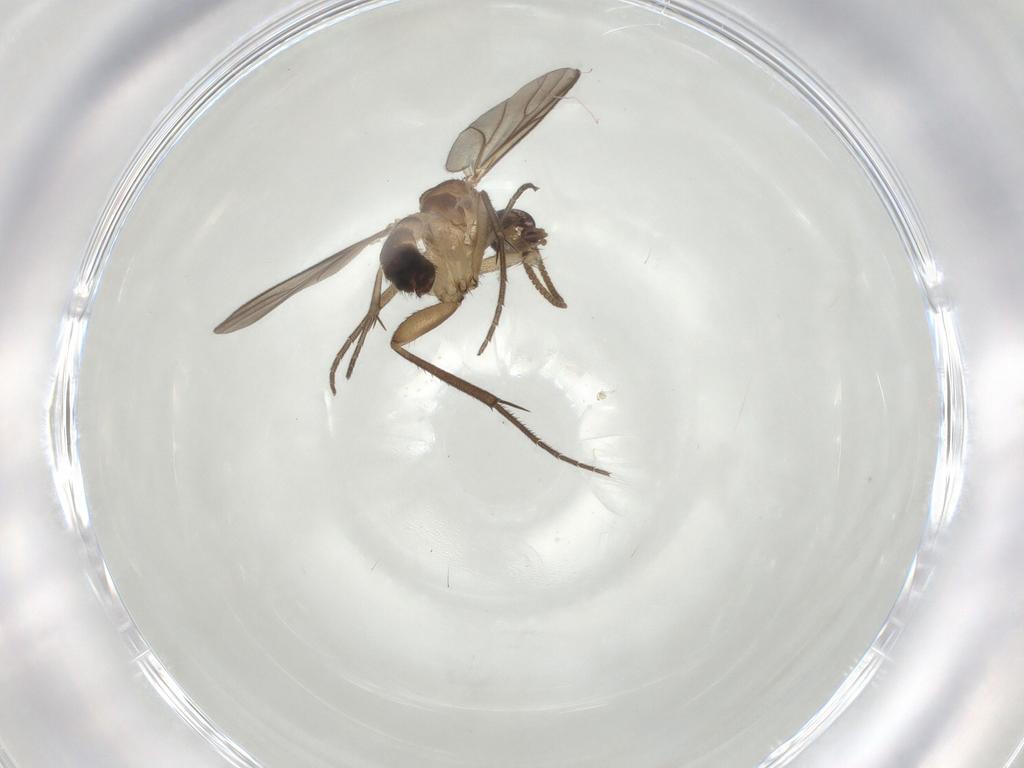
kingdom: Animalia
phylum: Arthropoda
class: Insecta
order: Diptera
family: Mycetophilidae
